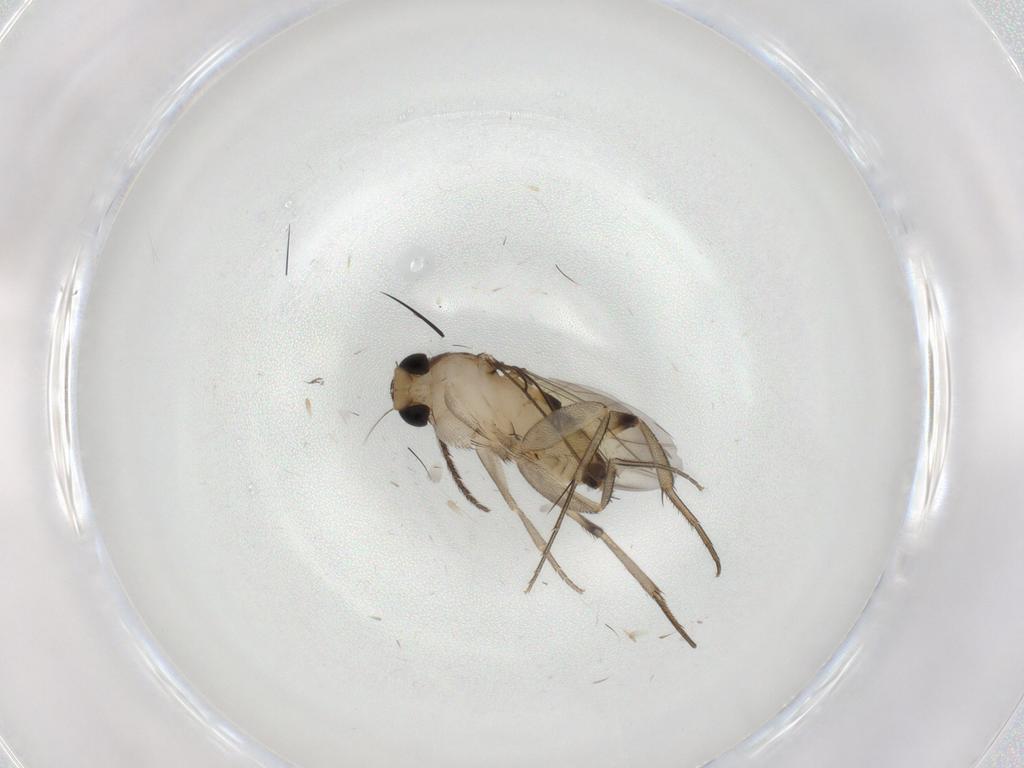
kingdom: Animalia
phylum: Arthropoda
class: Insecta
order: Diptera
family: Phoridae
